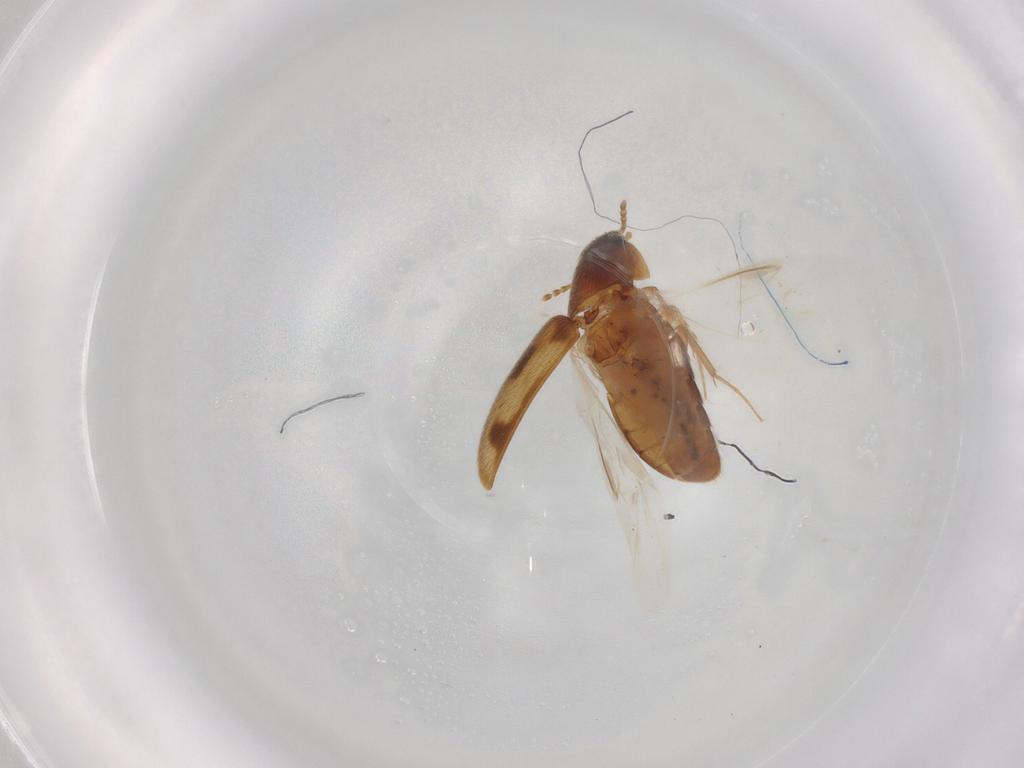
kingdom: Animalia
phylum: Arthropoda
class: Insecta
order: Coleoptera
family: Mycetophagidae
